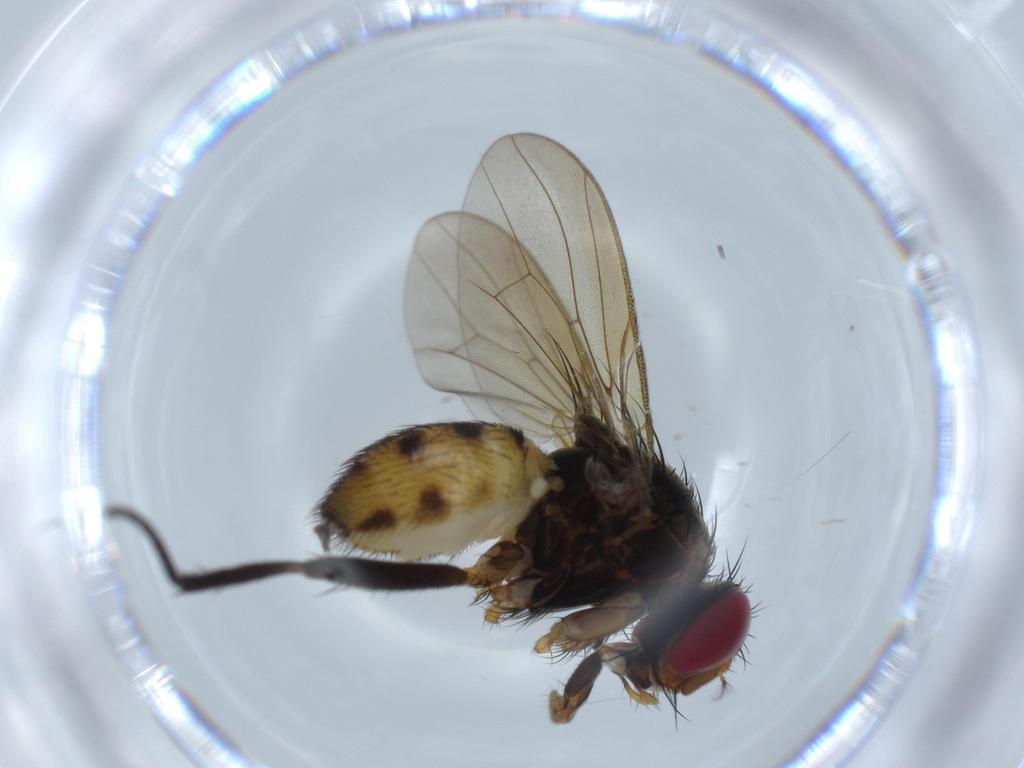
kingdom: Animalia
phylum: Arthropoda
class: Insecta
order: Diptera
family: Anthomyiidae
